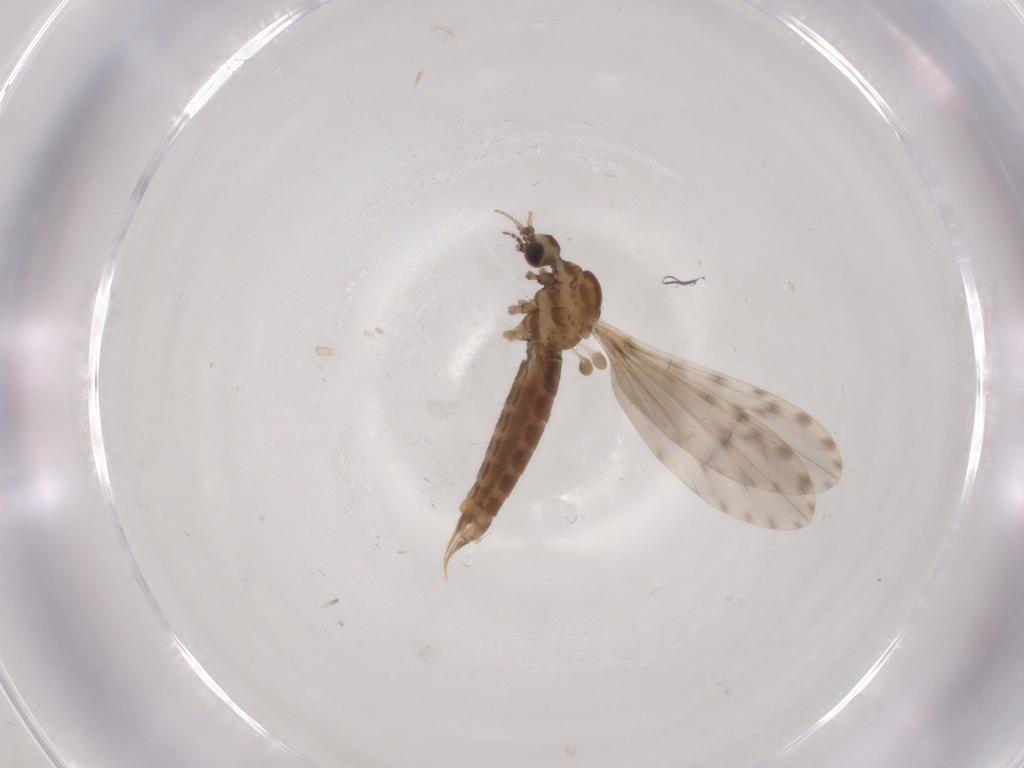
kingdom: Animalia
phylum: Arthropoda
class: Insecta
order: Diptera
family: Limoniidae
